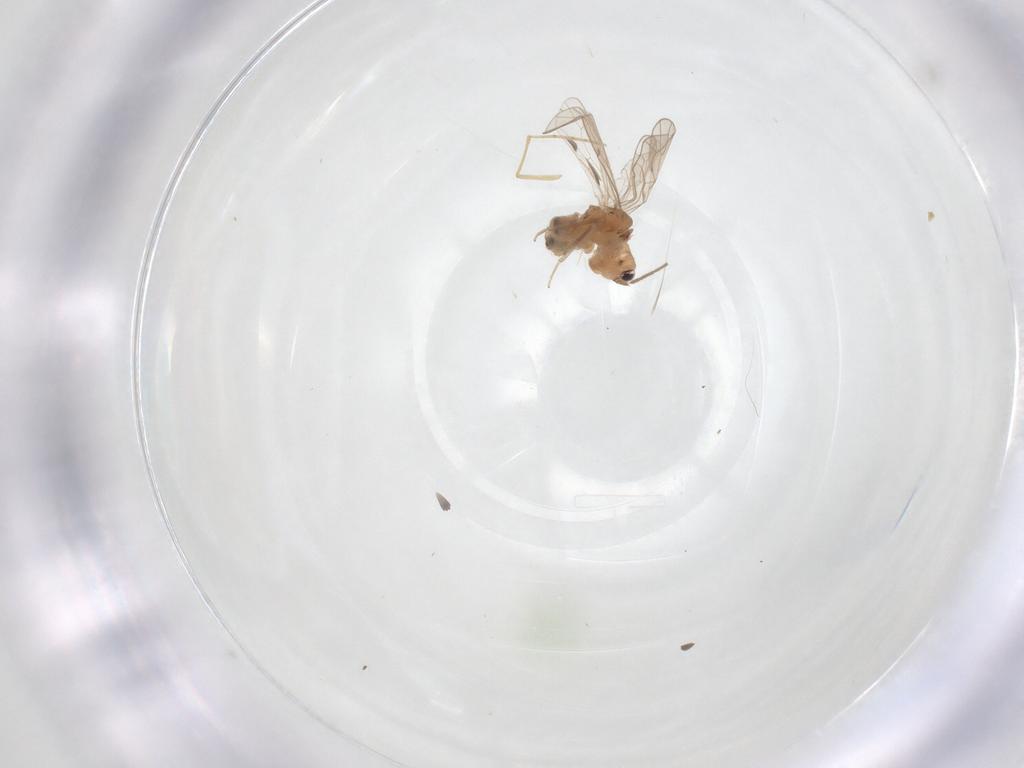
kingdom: Animalia
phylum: Arthropoda
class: Insecta
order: Psocodea
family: Ectopsocidae
